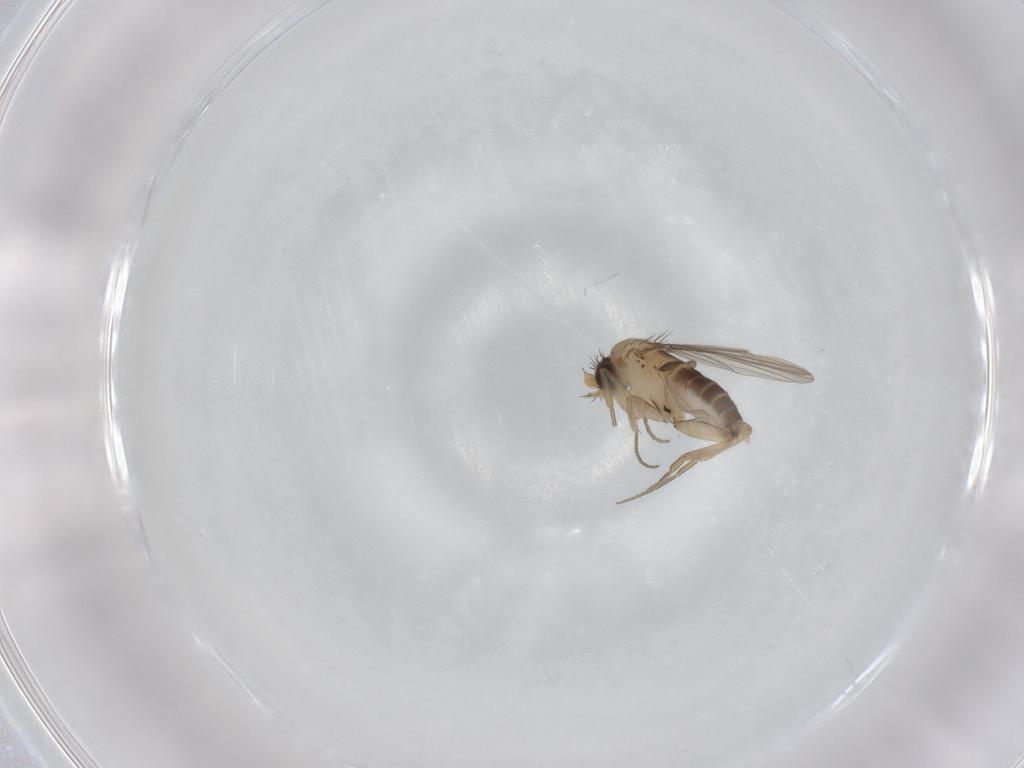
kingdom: Animalia
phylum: Arthropoda
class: Insecta
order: Diptera
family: Phoridae
